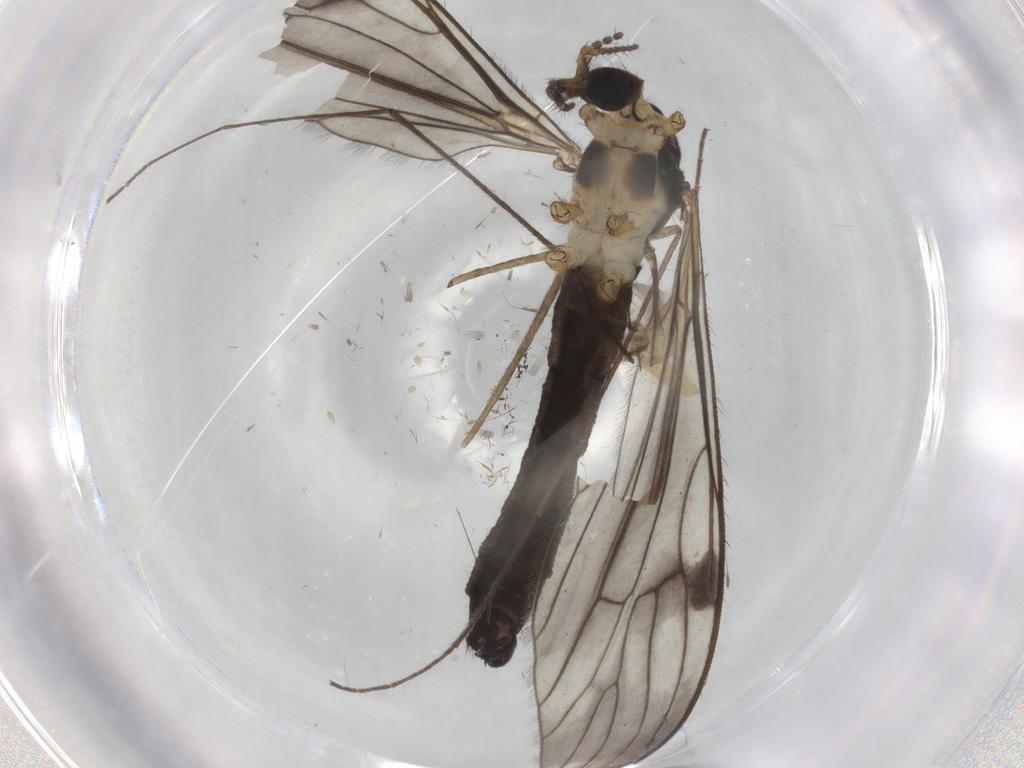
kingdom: Animalia
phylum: Arthropoda
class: Insecta
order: Diptera
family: Limoniidae
